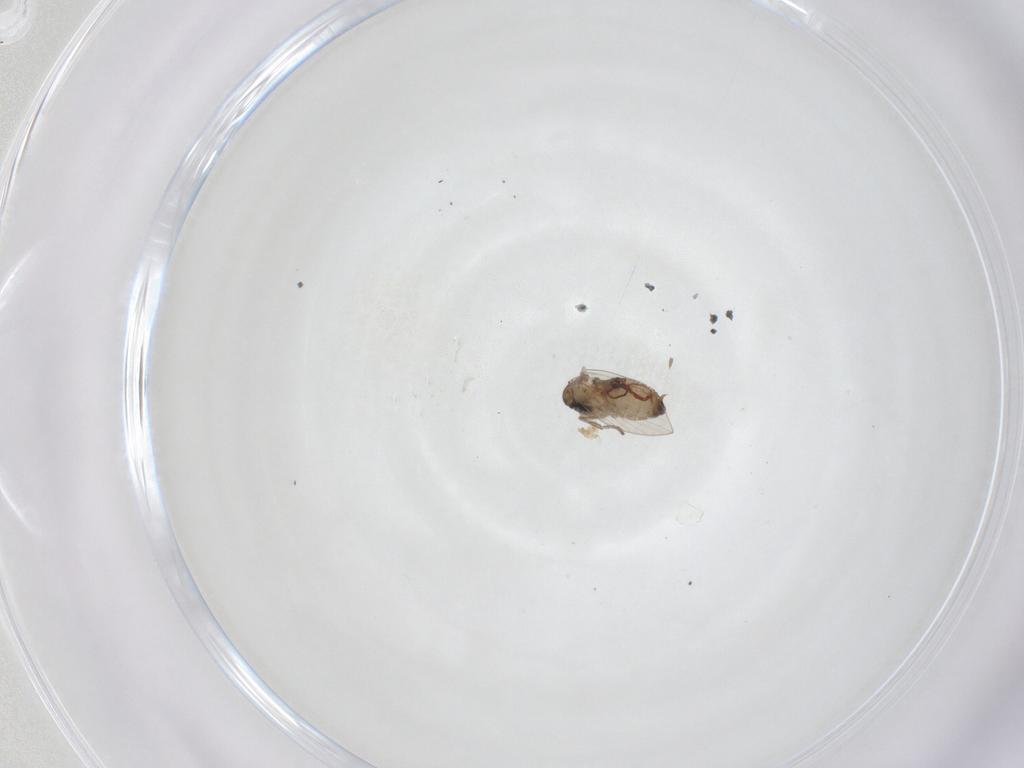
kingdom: Animalia
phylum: Arthropoda
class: Insecta
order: Diptera
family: Psychodidae
